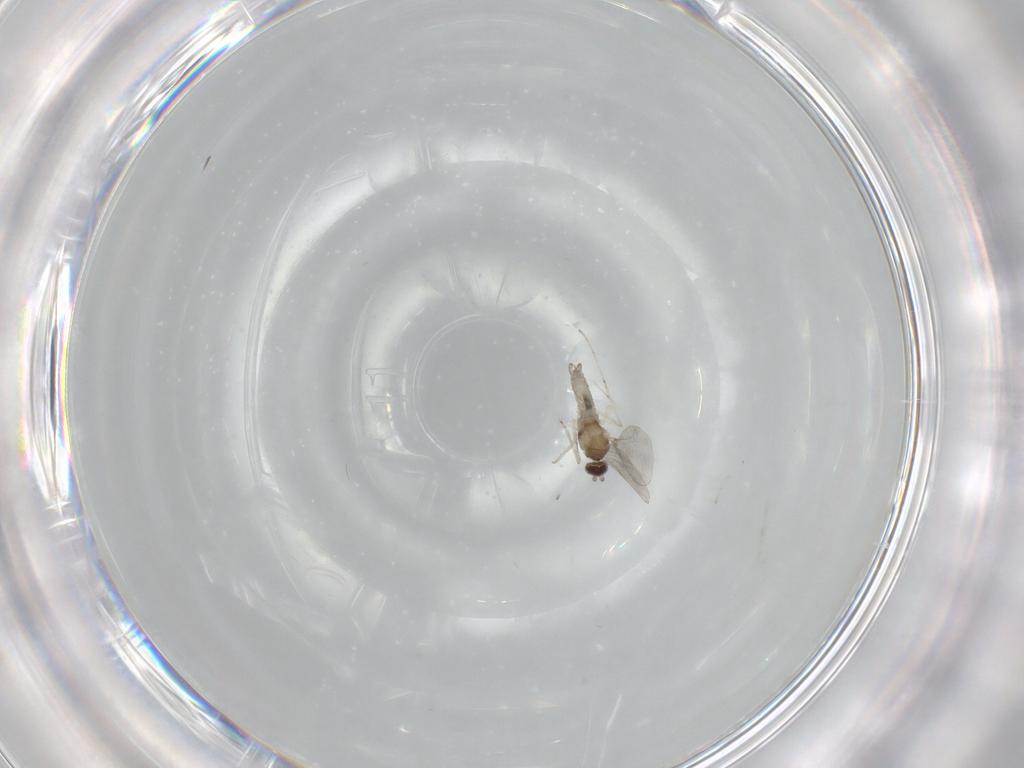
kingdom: Animalia
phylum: Arthropoda
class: Insecta
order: Diptera
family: Cecidomyiidae
